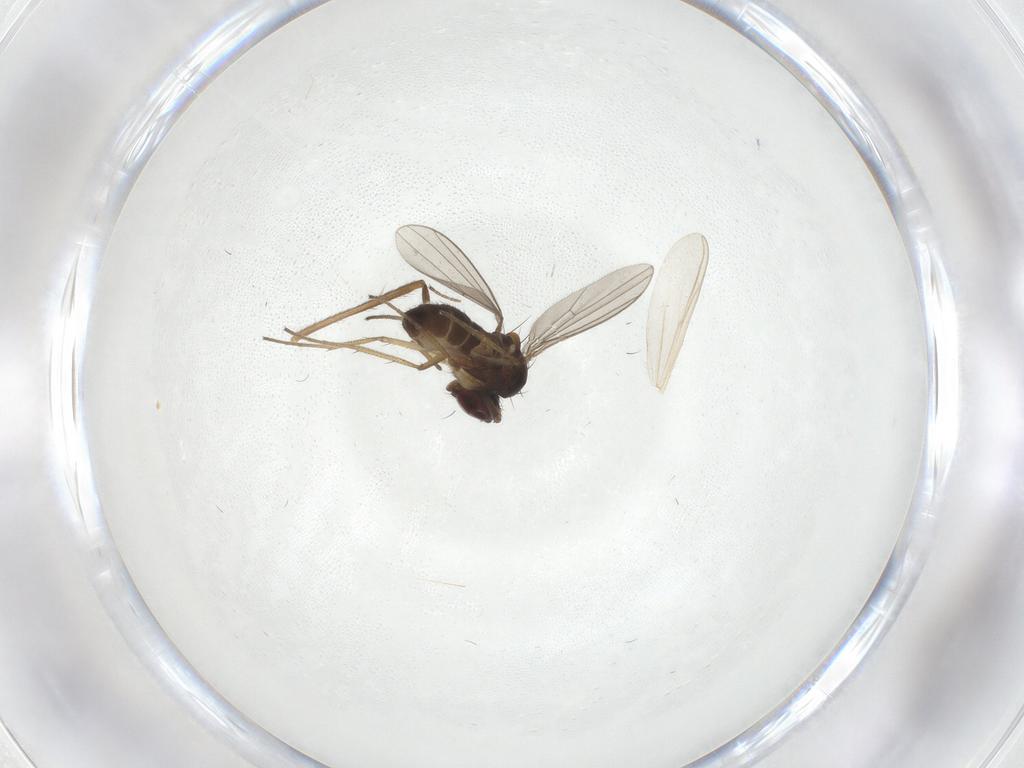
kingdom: Animalia
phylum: Arthropoda
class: Insecta
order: Diptera
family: Dolichopodidae
